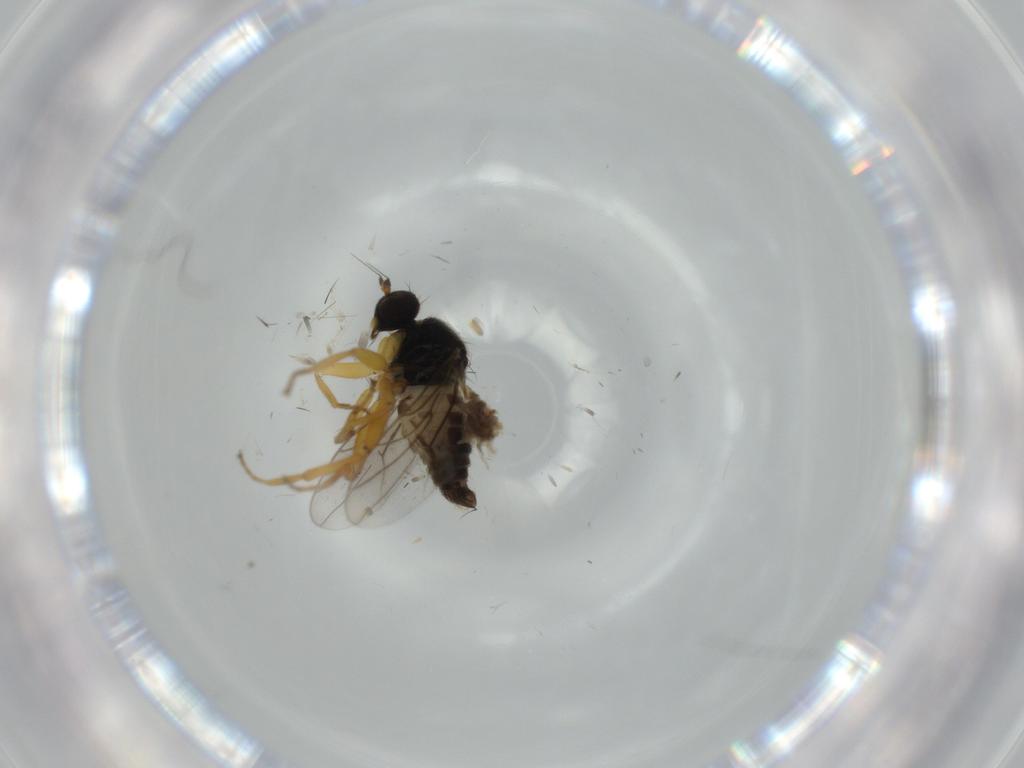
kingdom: Animalia
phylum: Arthropoda
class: Insecta
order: Diptera
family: Hybotidae
